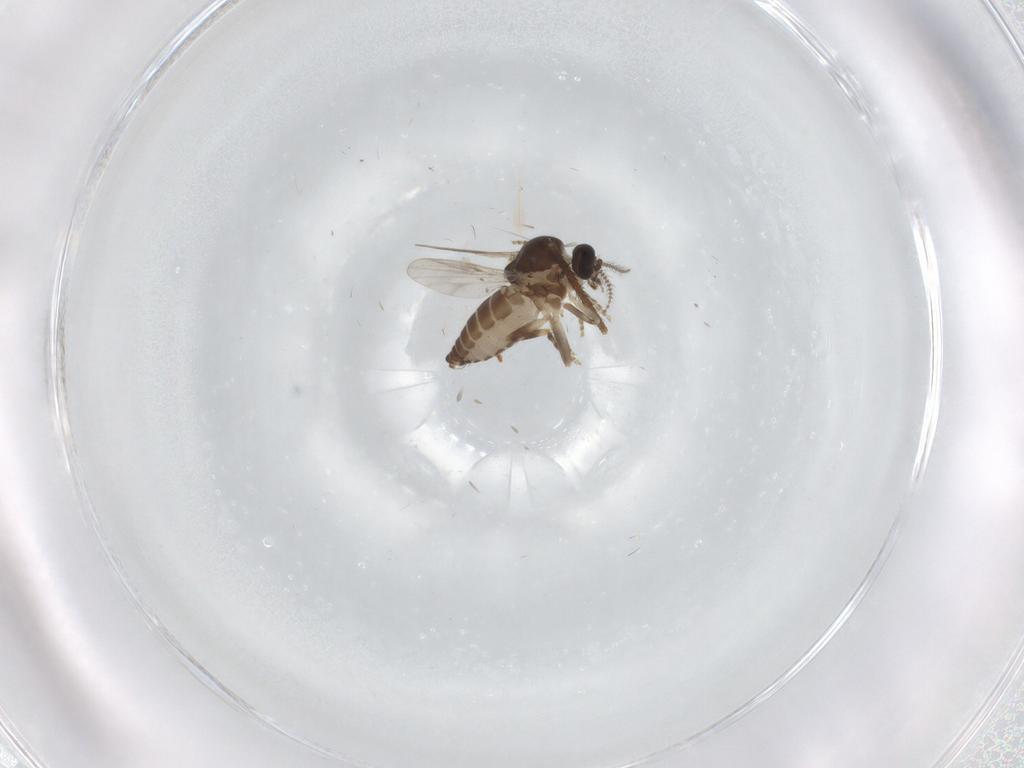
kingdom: Animalia
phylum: Arthropoda
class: Insecta
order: Diptera
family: Ceratopogonidae
